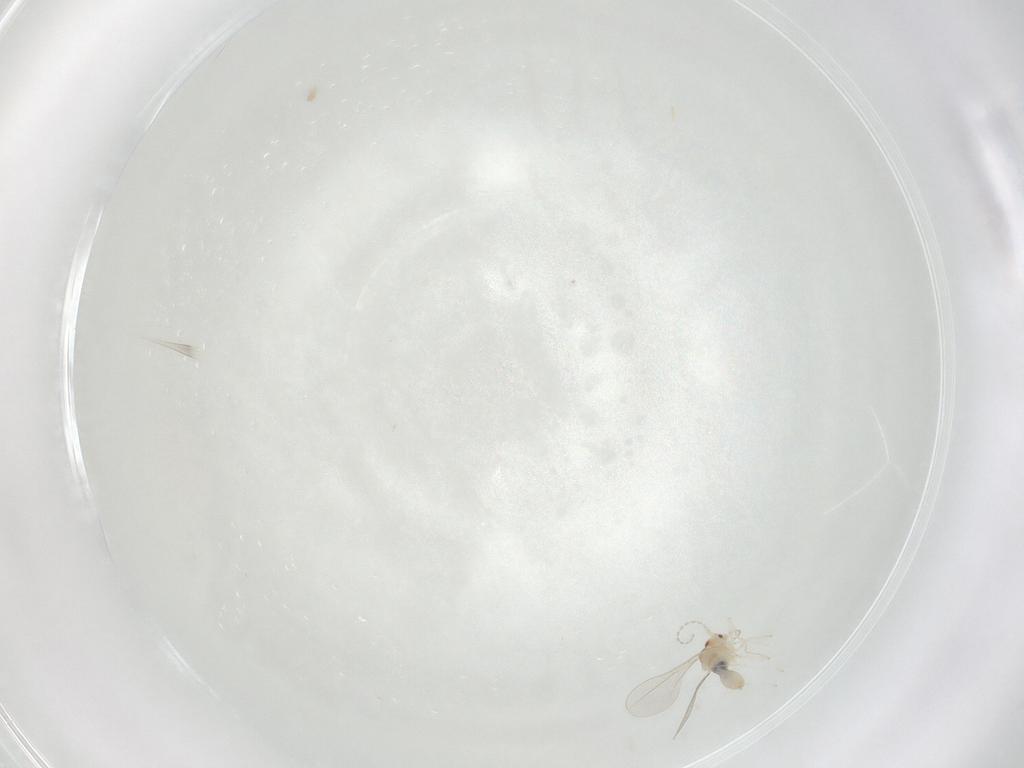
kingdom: Animalia
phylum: Arthropoda
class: Insecta
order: Diptera
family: Cecidomyiidae
